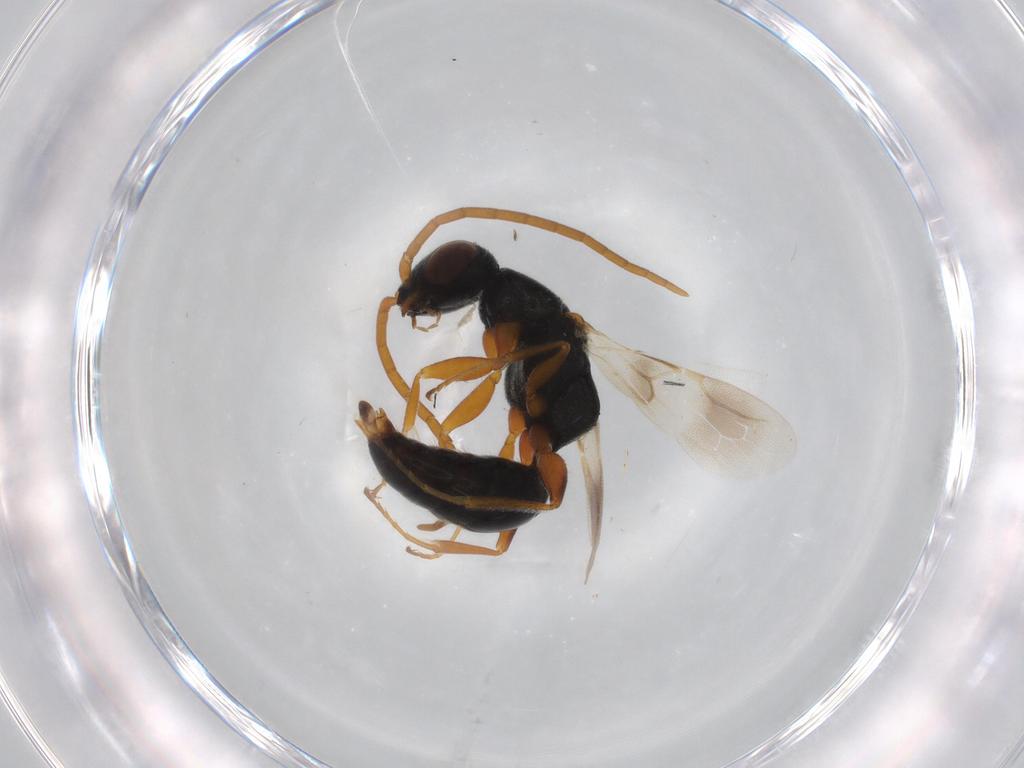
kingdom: Animalia
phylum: Arthropoda
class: Insecta
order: Hymenoptera
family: Bethylidae
